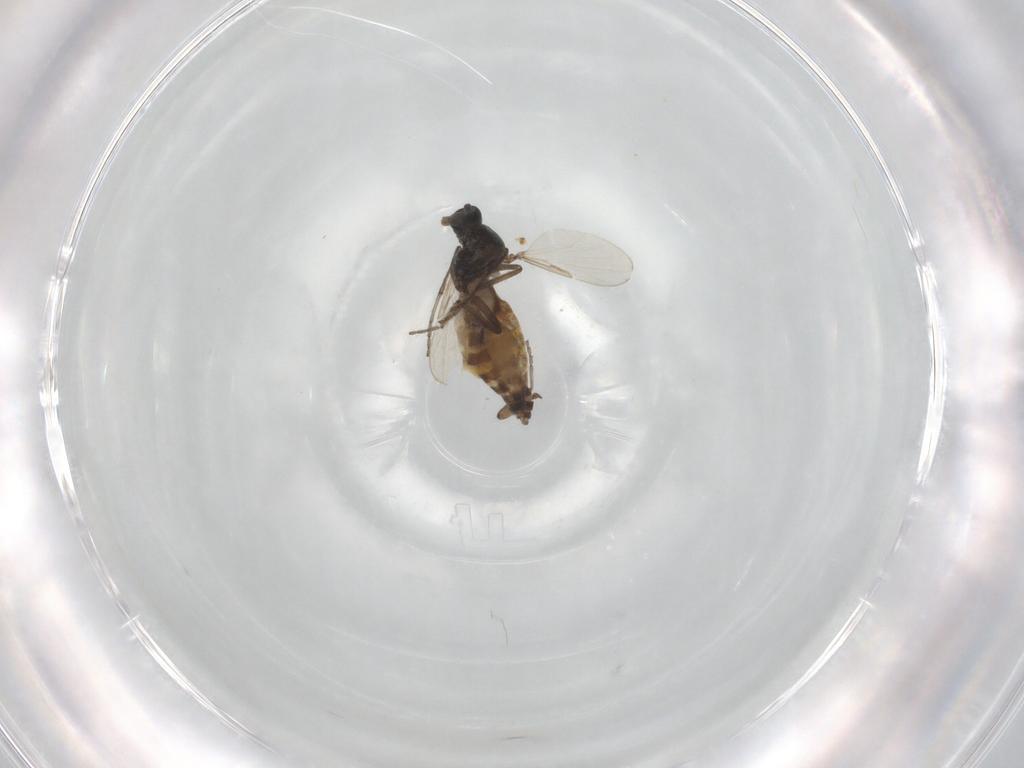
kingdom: Animalia
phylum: Arthropoda
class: Insecta
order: Diptera
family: Ceratopogonidae
